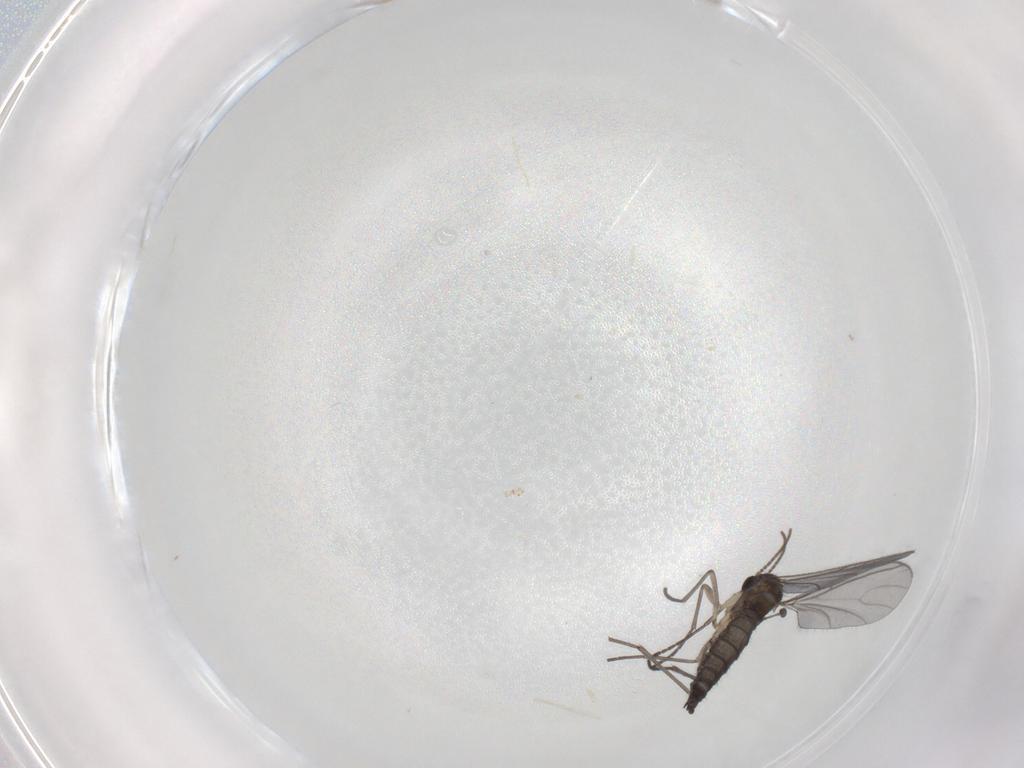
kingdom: Animalia
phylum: Arthropoda
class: Insecta
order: Diptera
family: Sciaridae
